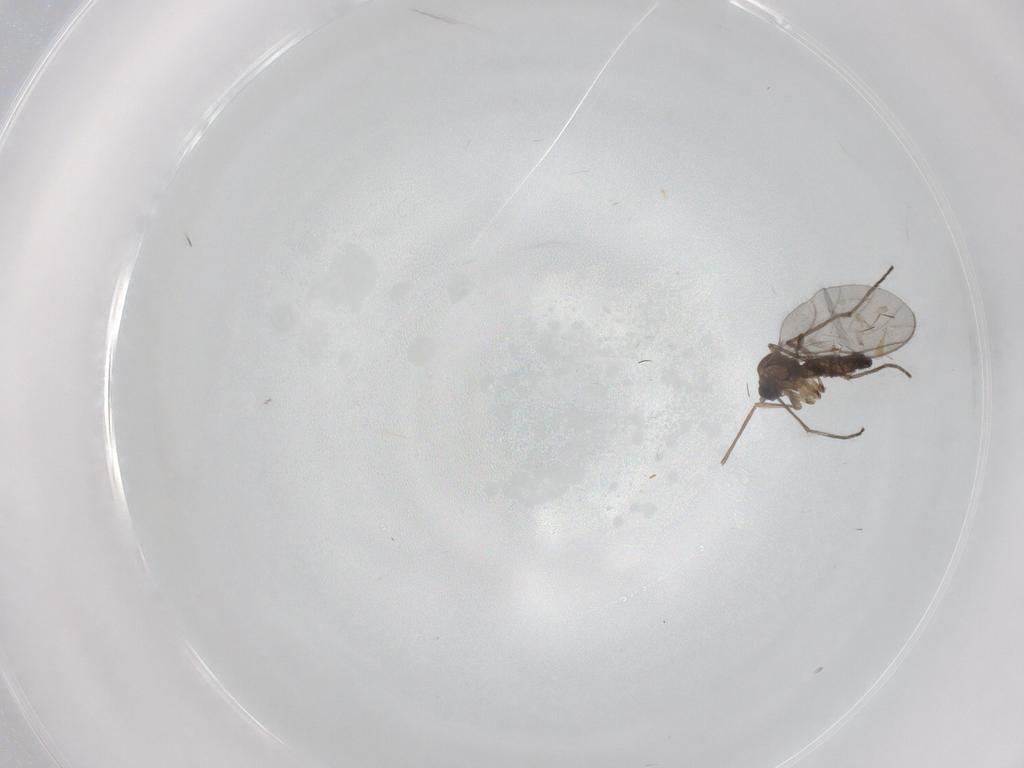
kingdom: Animalia
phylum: Arthropoda
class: Insecta
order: Diptera
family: Sciaridae
